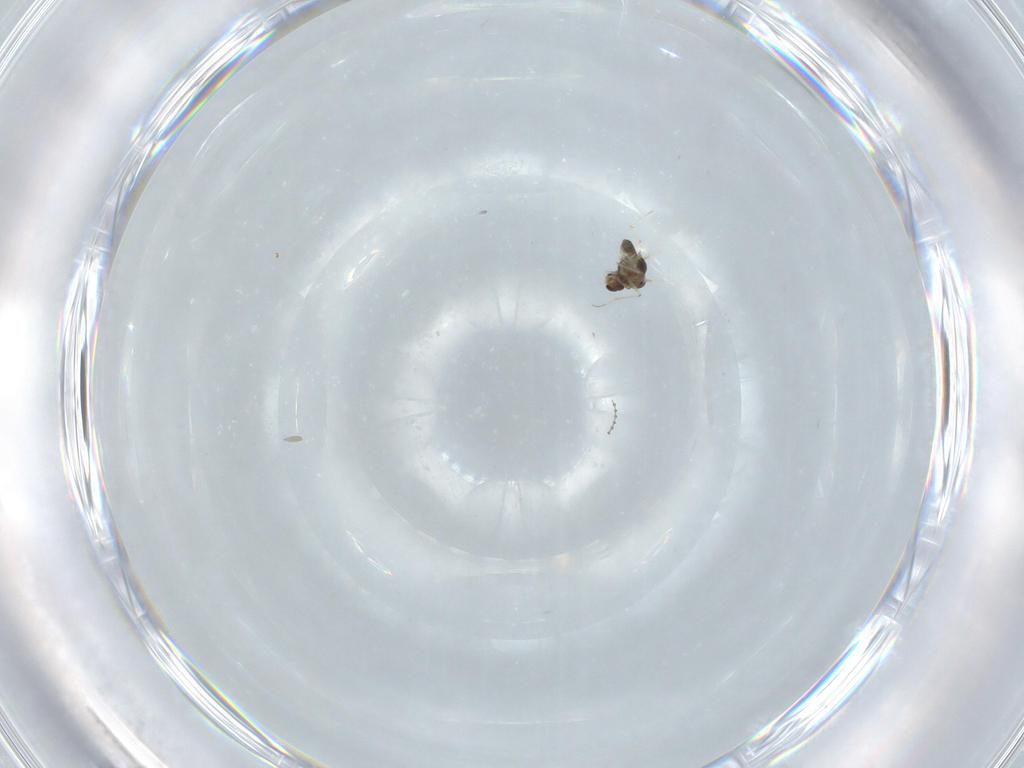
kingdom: Animalia
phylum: Arthropoda
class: Insecta
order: Diptera
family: Chironomidae
